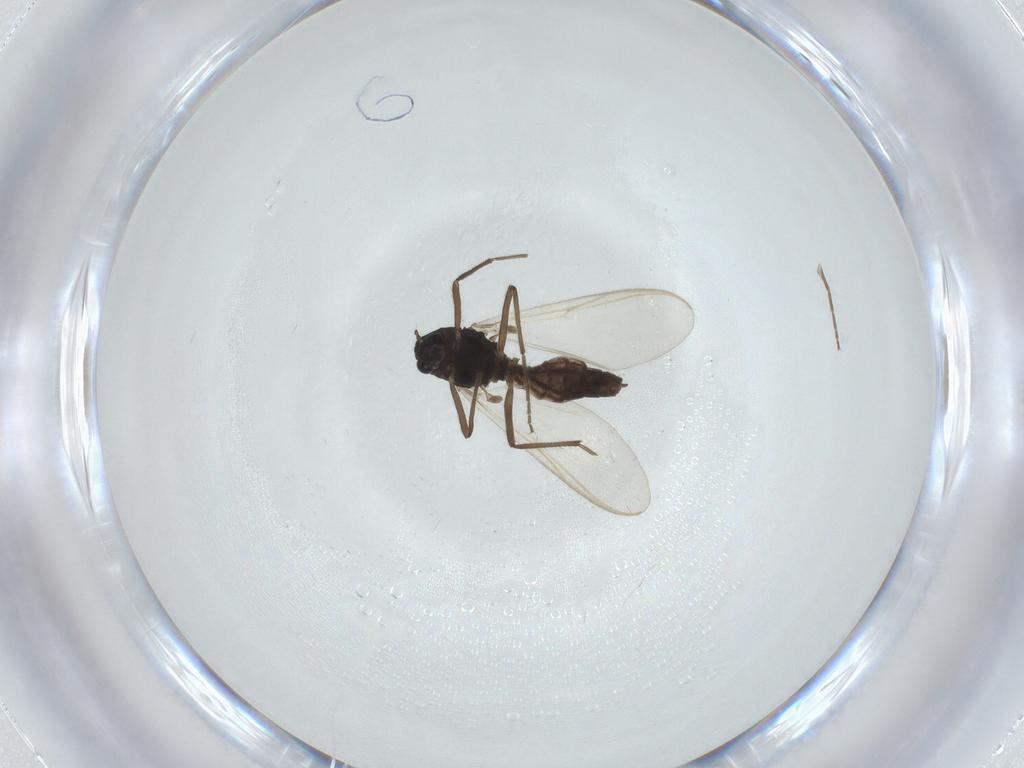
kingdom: Animalia
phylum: Arthropoda
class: Insecta
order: Diptera
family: Chironomidae
